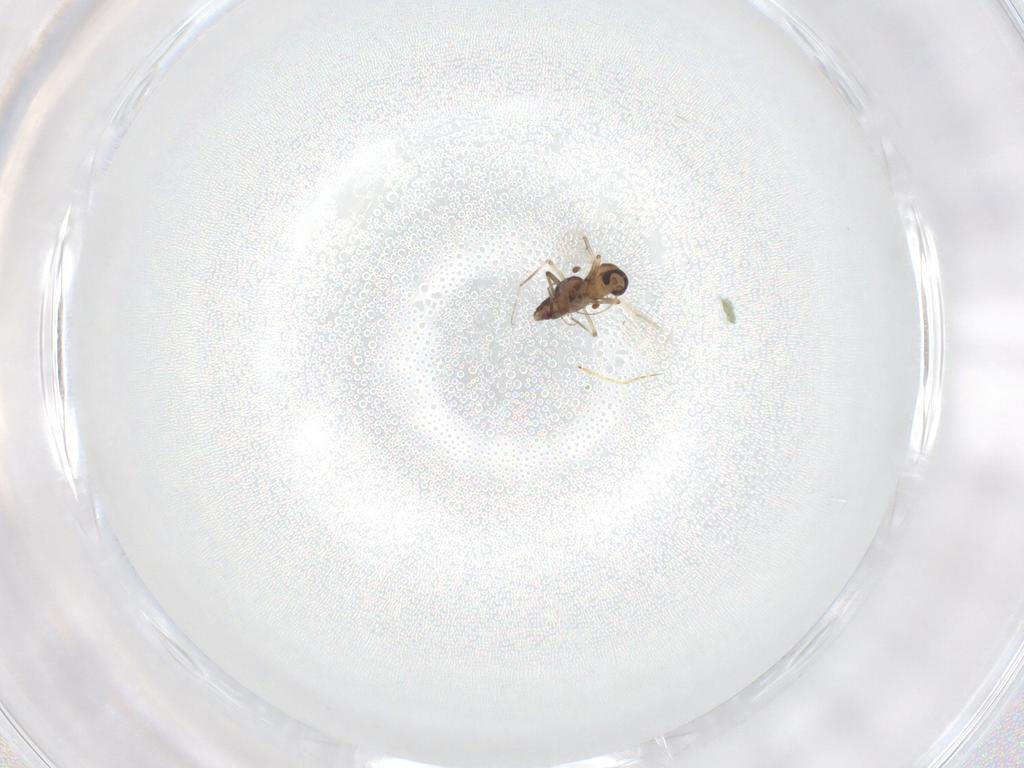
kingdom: Animalia
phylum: Arthropoda
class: Insecta
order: Diptera
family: Ceratopogonidae
